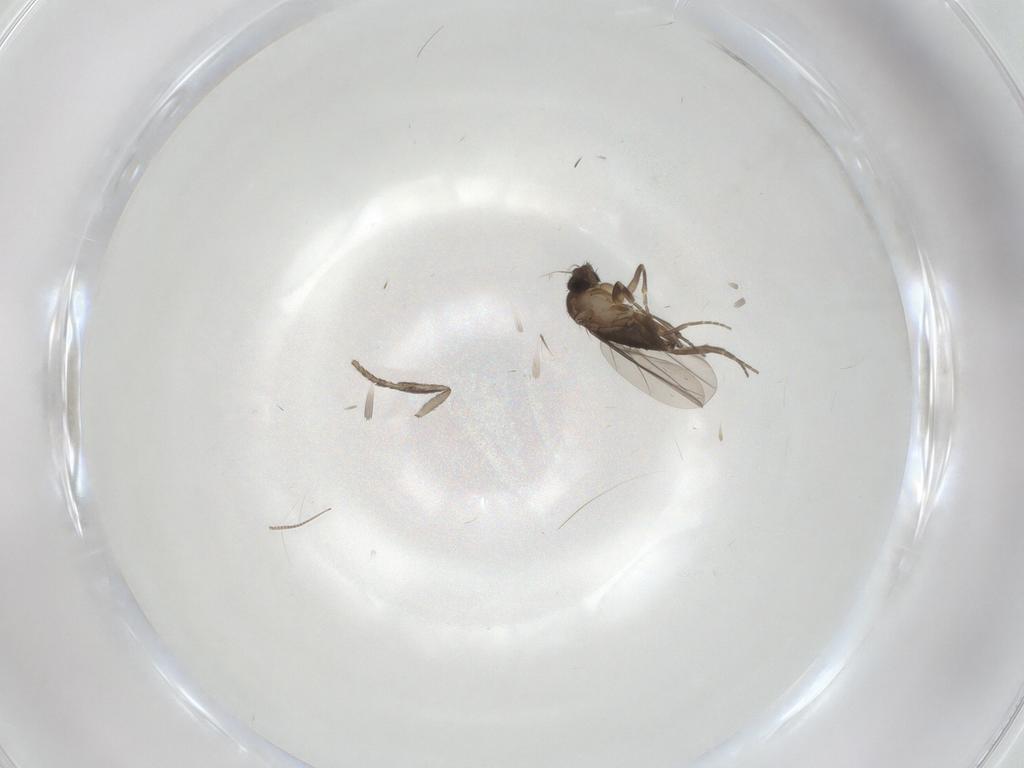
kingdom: Animalia
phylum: Arthropoda
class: Insecta
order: Diptera
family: Psychodidae
